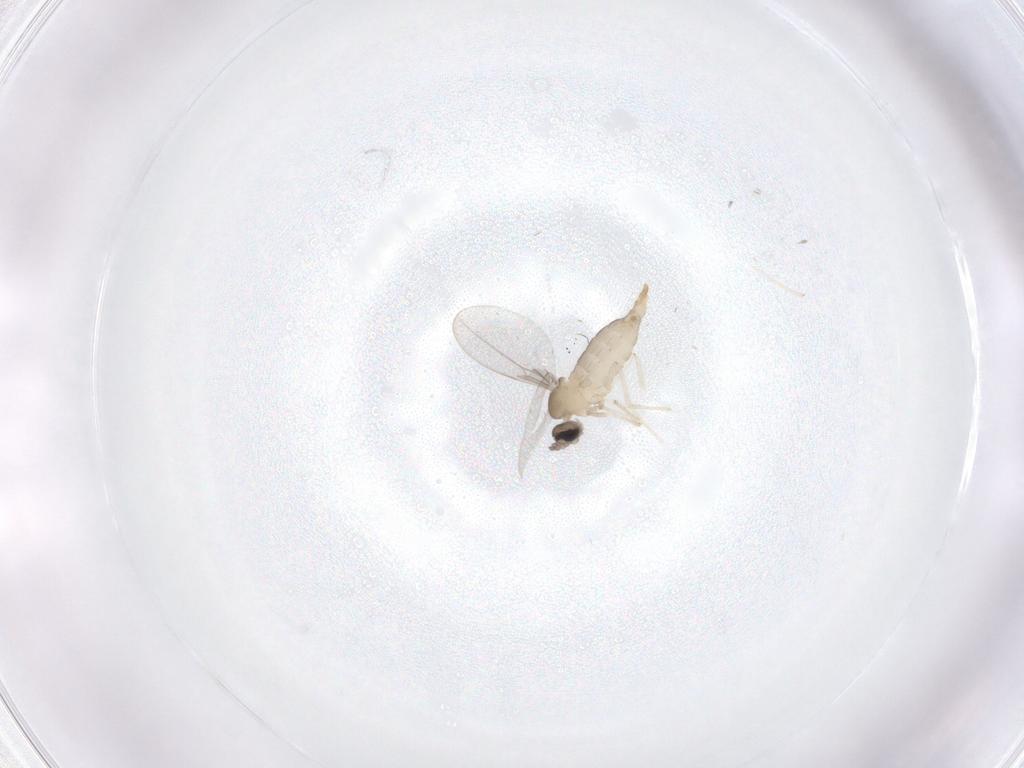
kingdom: Animalia
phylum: Arthropoda
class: Insecta
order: Diptera
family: Cecidomyiidae
